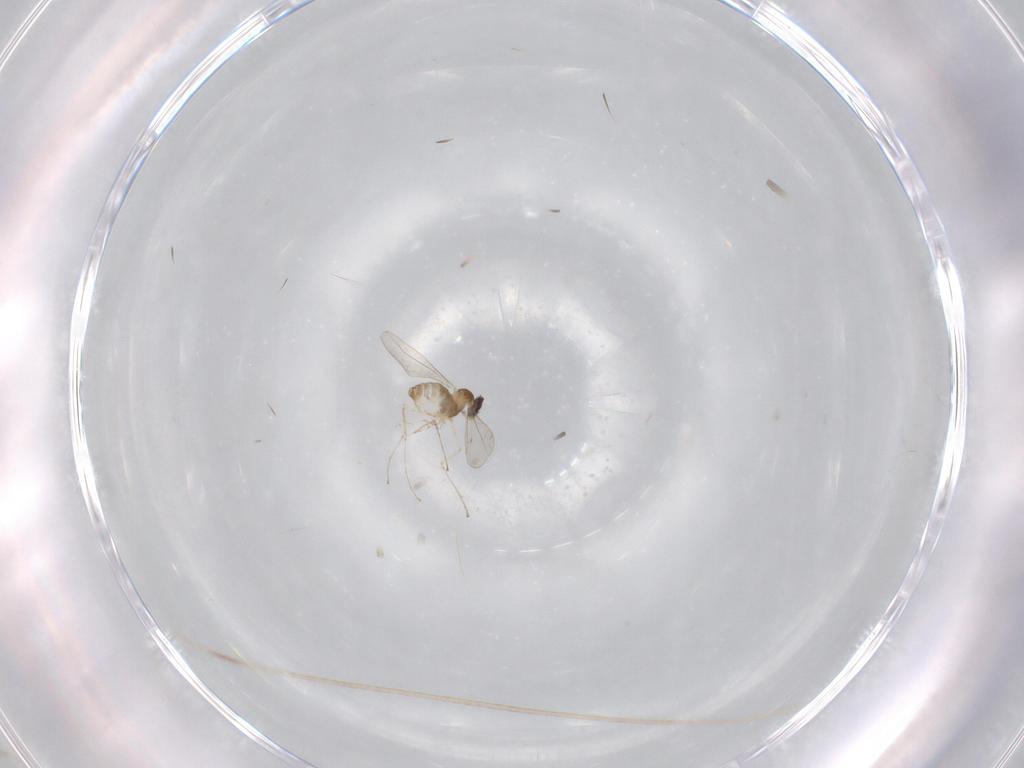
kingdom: Animalia
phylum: Arthropoda
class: Insecta
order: Diptera
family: Cecidomyiidae
